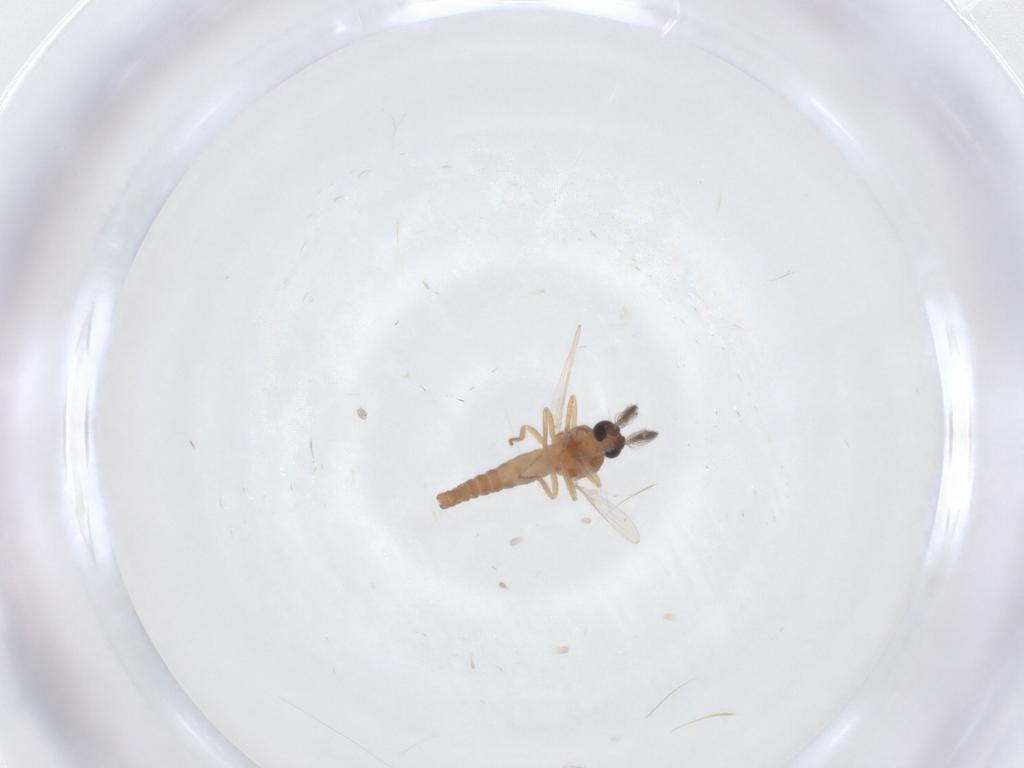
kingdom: Animalia
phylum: Arthropoda
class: Insecta
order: Diptera
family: Ceratopogonidae
